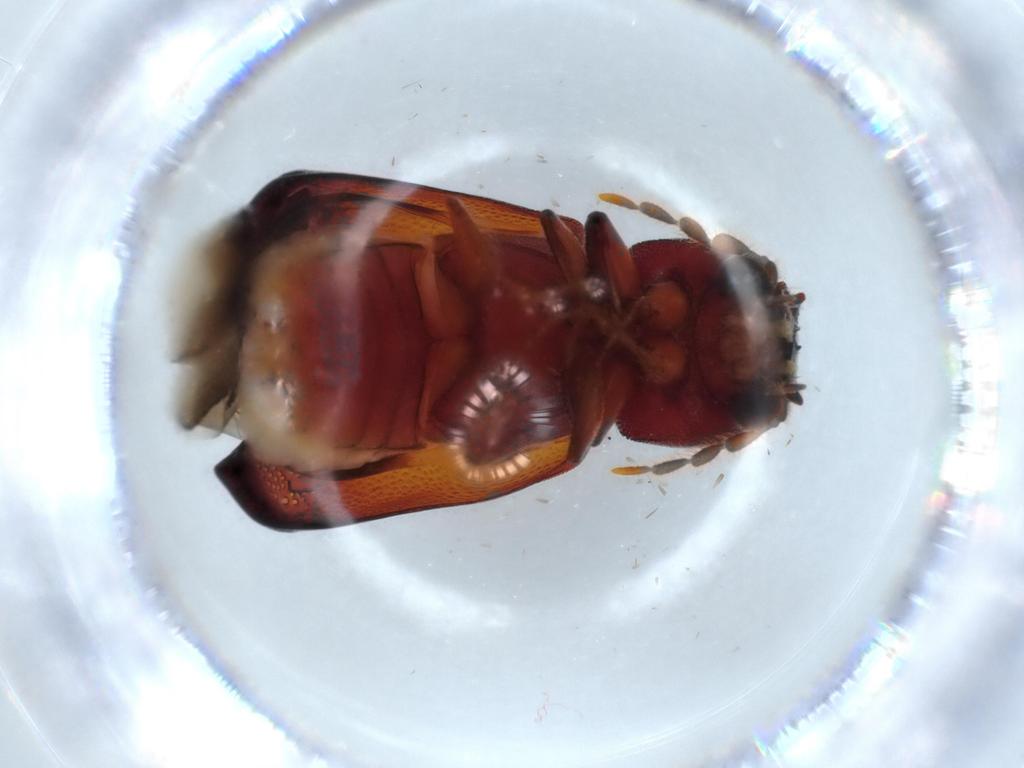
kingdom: Animalia
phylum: Arthropoda
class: Insecta
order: Coleoptera
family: Bostrichidae
